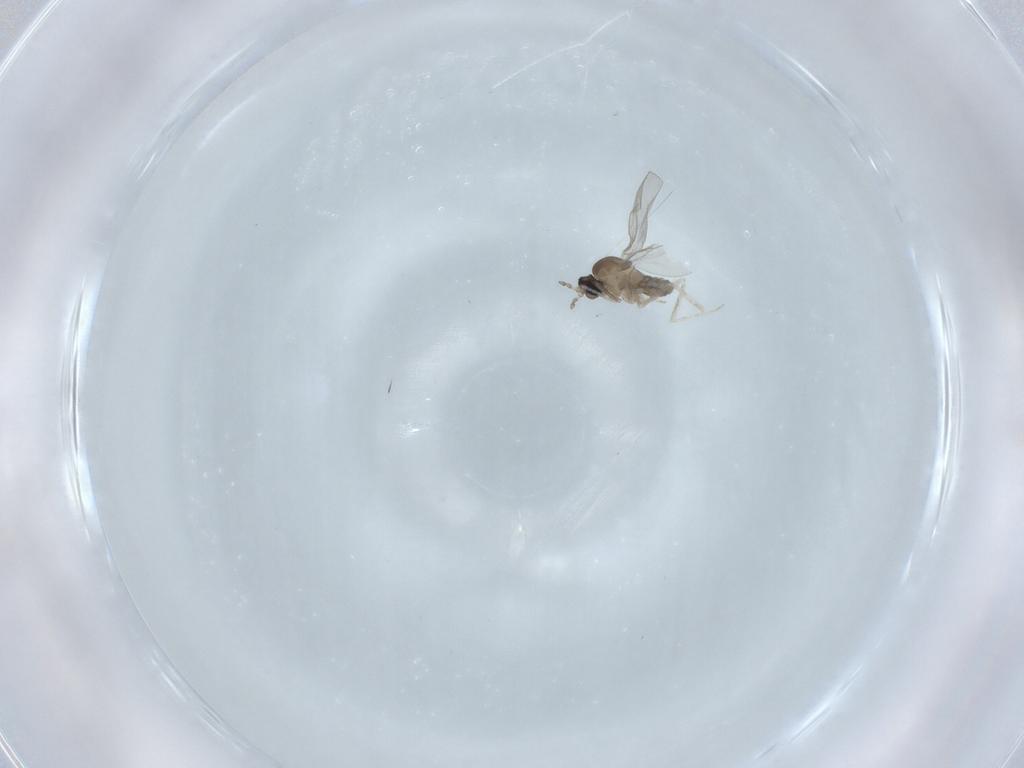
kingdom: Animalia
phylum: Arthropoda
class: Insecta
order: Diptera
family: Cecidomyiidae
